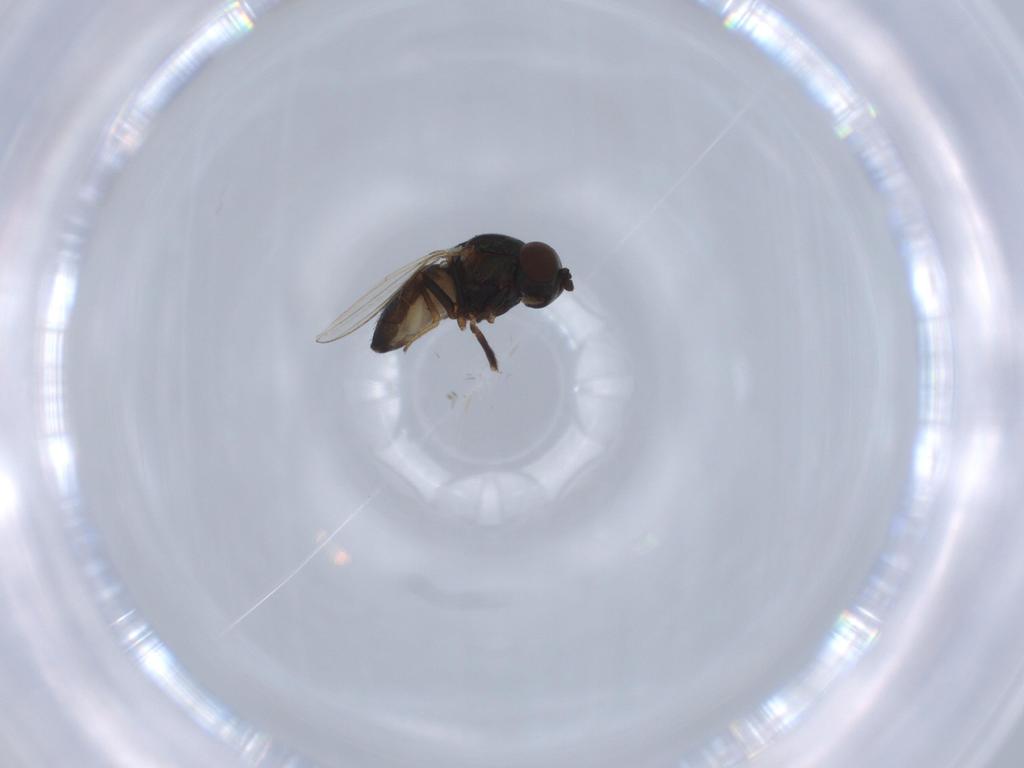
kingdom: Animalia
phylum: Arthropoda
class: Insecta
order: Diptera
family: Ephydridae
